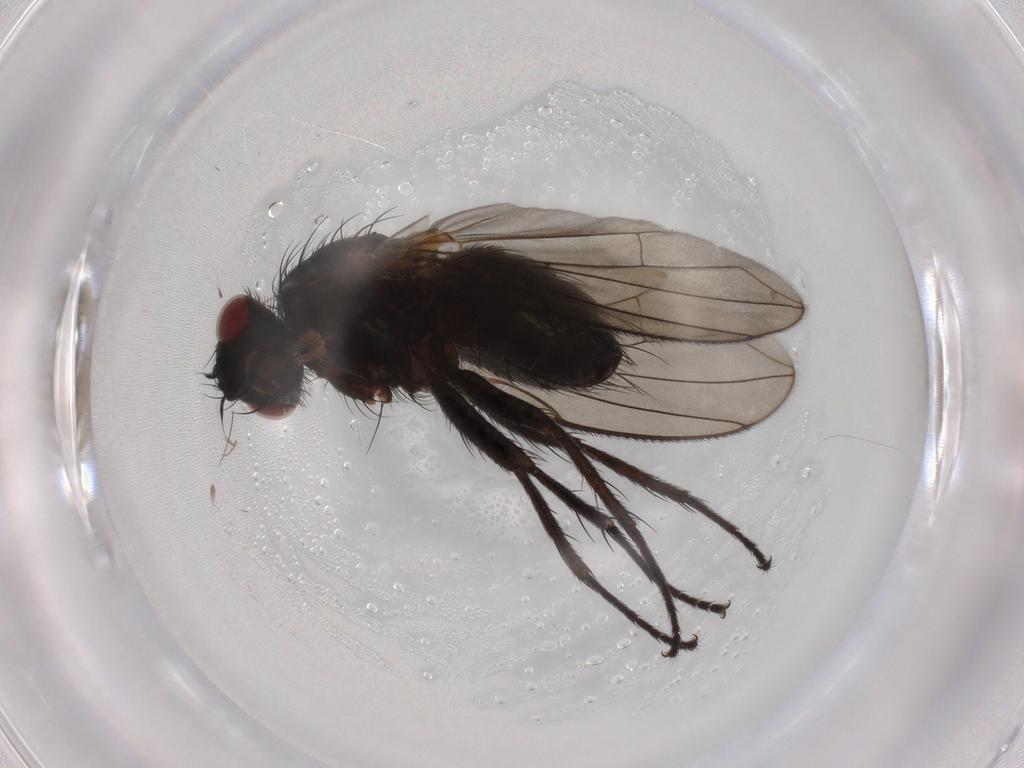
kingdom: Animalia
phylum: Arthropoda
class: Insecta
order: Diptera
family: Tachinidae
